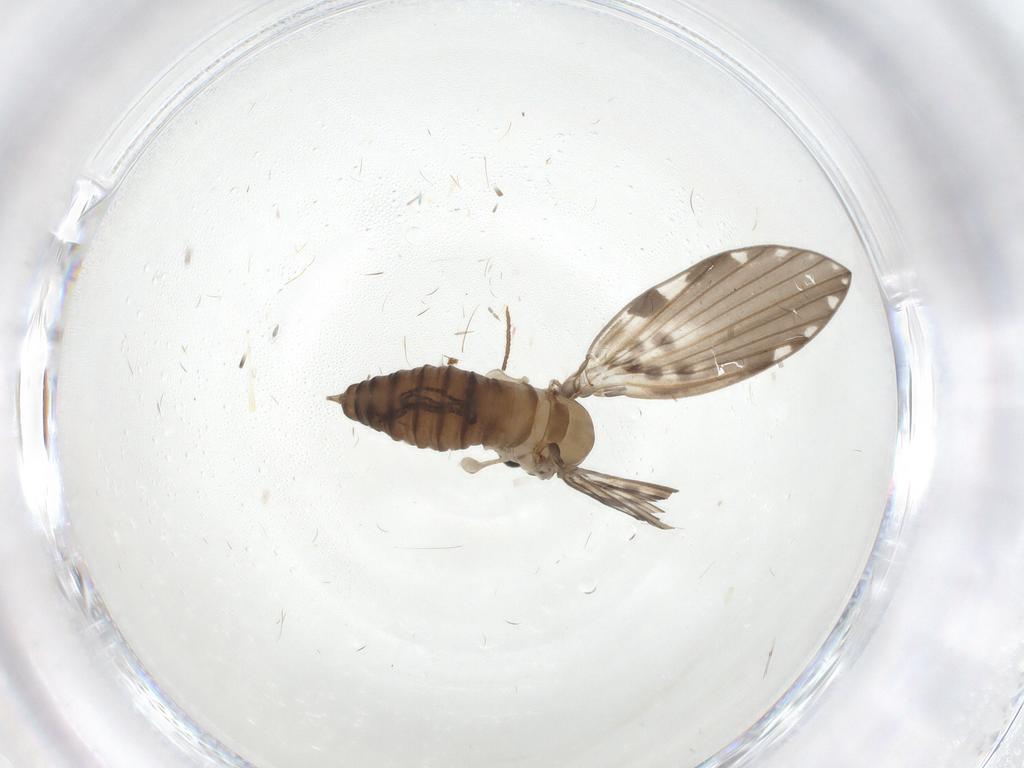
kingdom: Animalia
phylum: Arthropoda
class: Insecta
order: Diptera
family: Psychodidae
